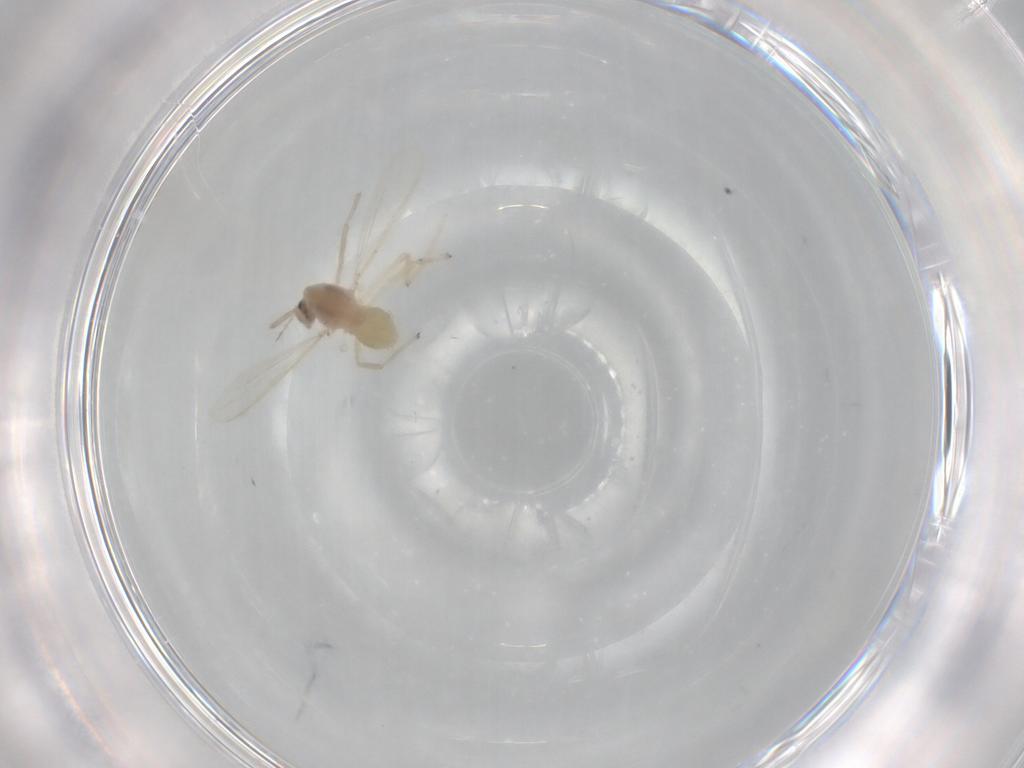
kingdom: Animalia
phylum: Arthropoda
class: Insecta
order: Diptera
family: Chironomidae
